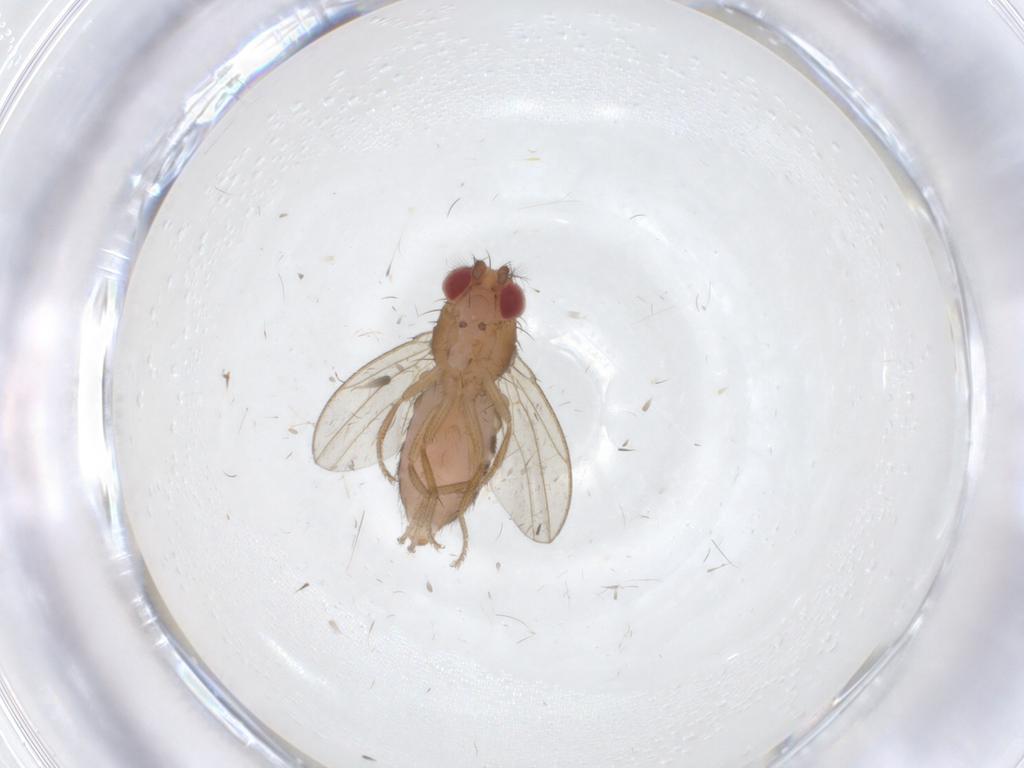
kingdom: Animalia
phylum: Arthropoda
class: Insecta
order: Diptera
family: Drosophilidae
